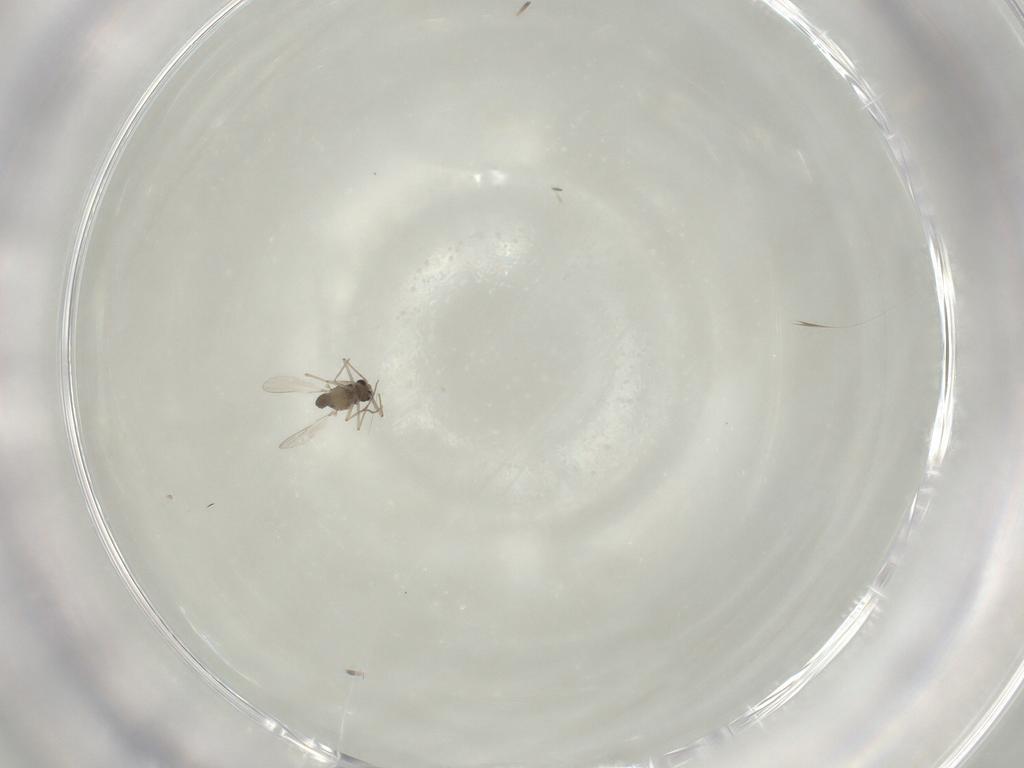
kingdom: Animalia
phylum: Arthropoda
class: Insecta
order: Diptera
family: Chironomidae
